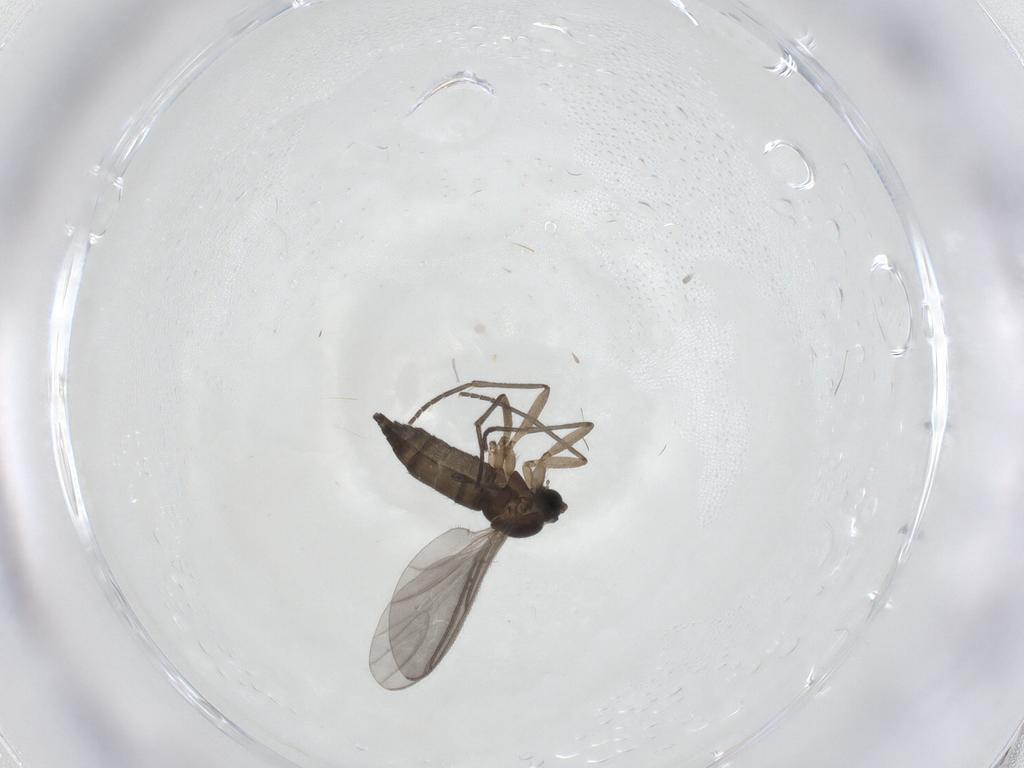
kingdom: Animalia
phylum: Arthropoda
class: Insecta
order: Diptera
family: Sciaridae
